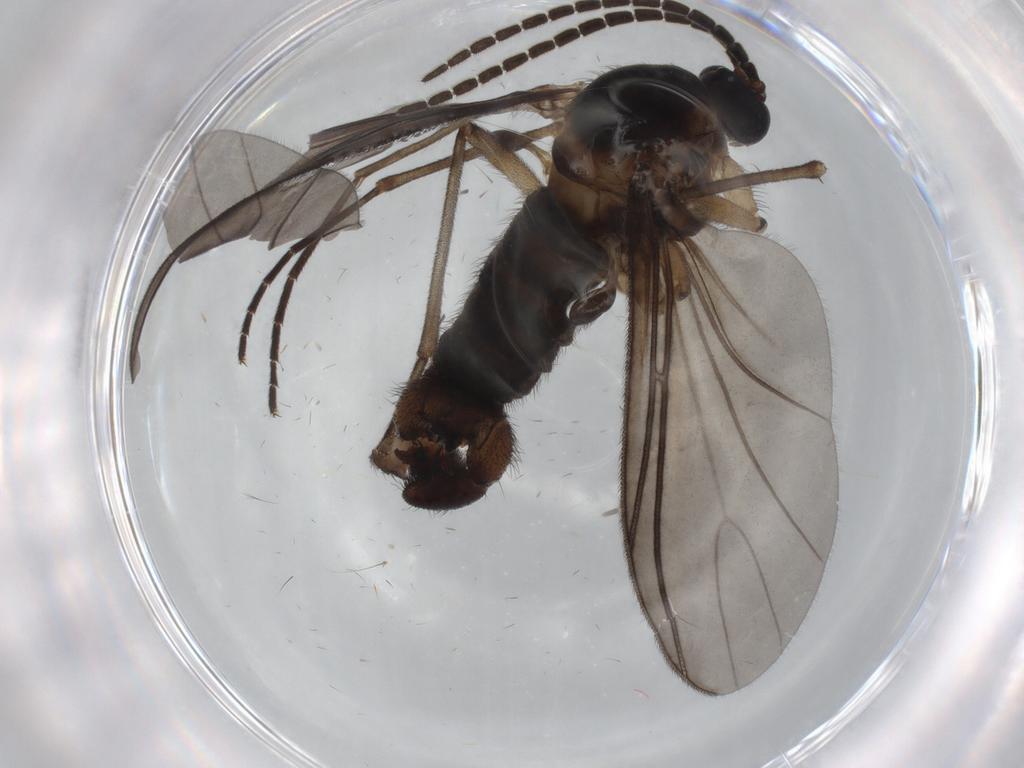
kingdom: Animalia
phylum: Arthropoda
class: Insecta
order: Diptera
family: Sciaridae
